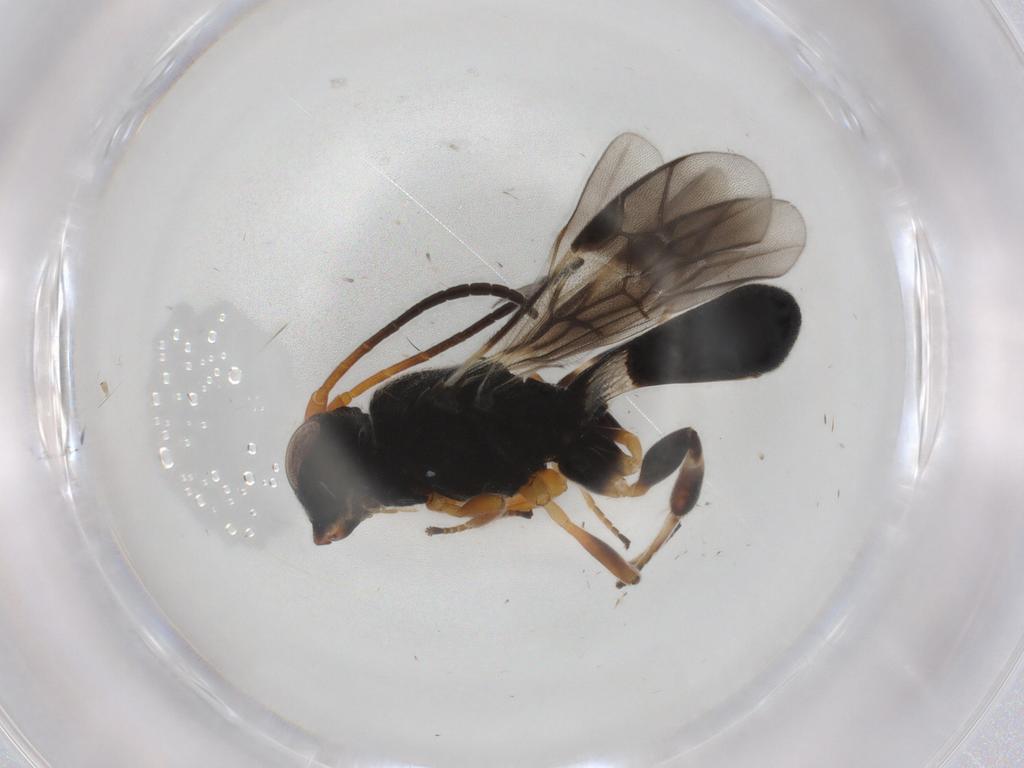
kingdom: Animalia
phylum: Arthropoda
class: Insecta
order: Hymenoptera
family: Braconidae
